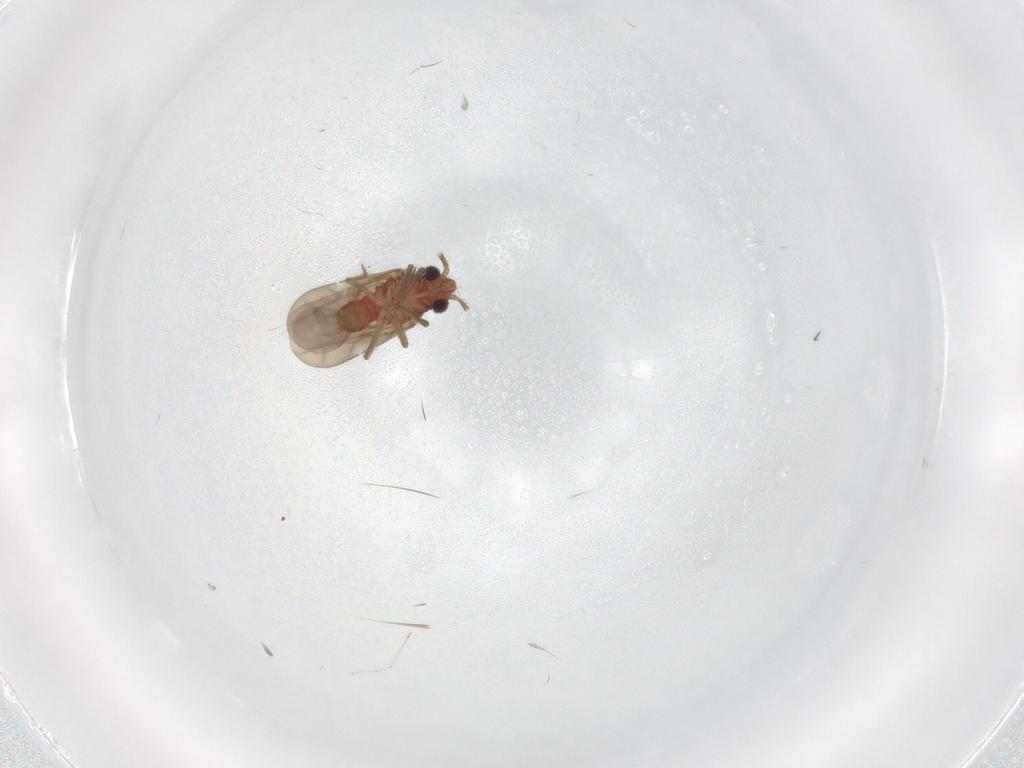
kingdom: Animalia
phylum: Arthropoda
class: Insecta
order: Hemiptera
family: Ceratocombidae
